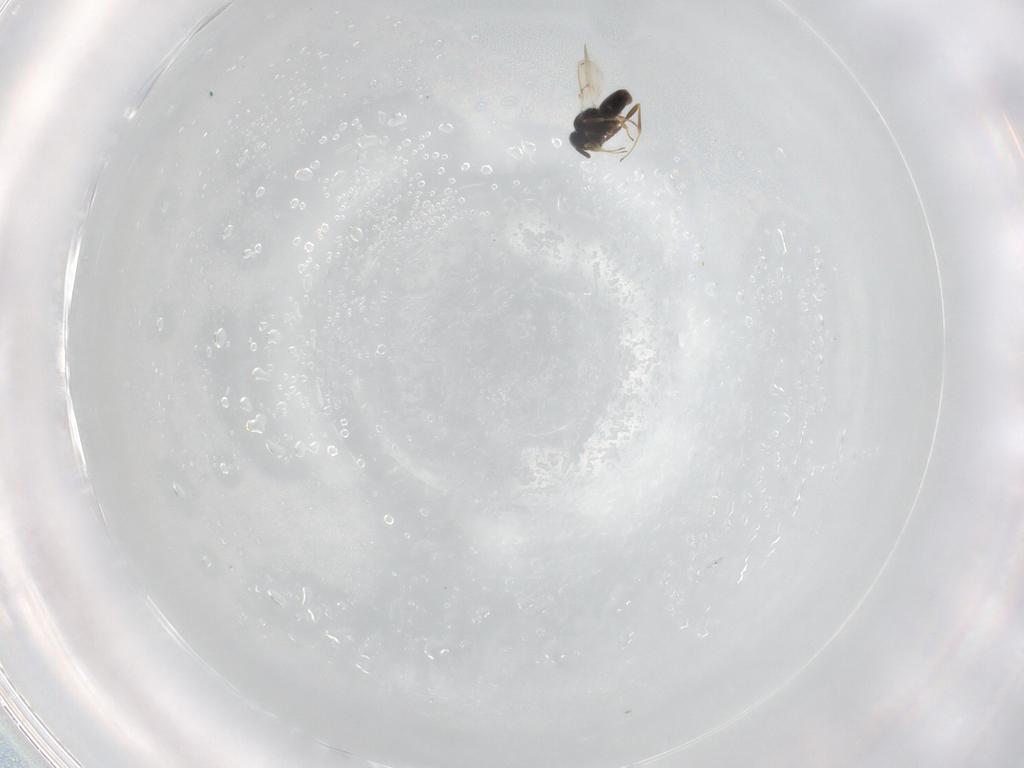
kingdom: Animalia
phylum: Arthropoda
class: Insecta
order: Hymenoptera
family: Scelionidae
